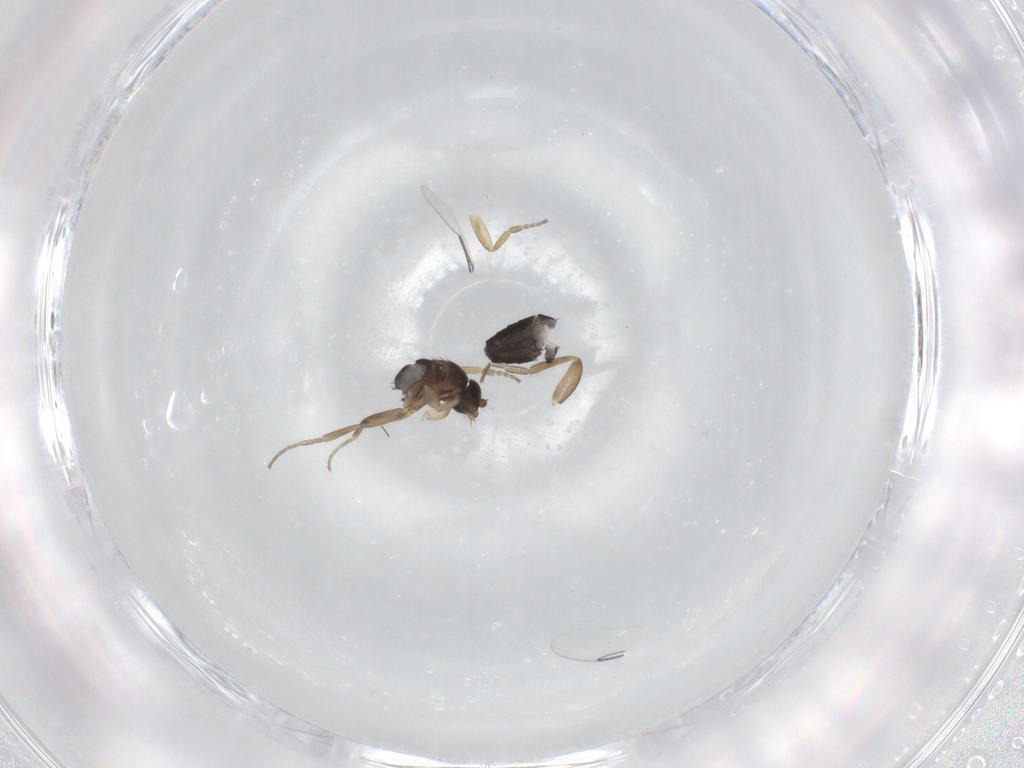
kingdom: Animalia
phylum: Arthropoda
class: Insecta
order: Diptera
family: Phoridae
